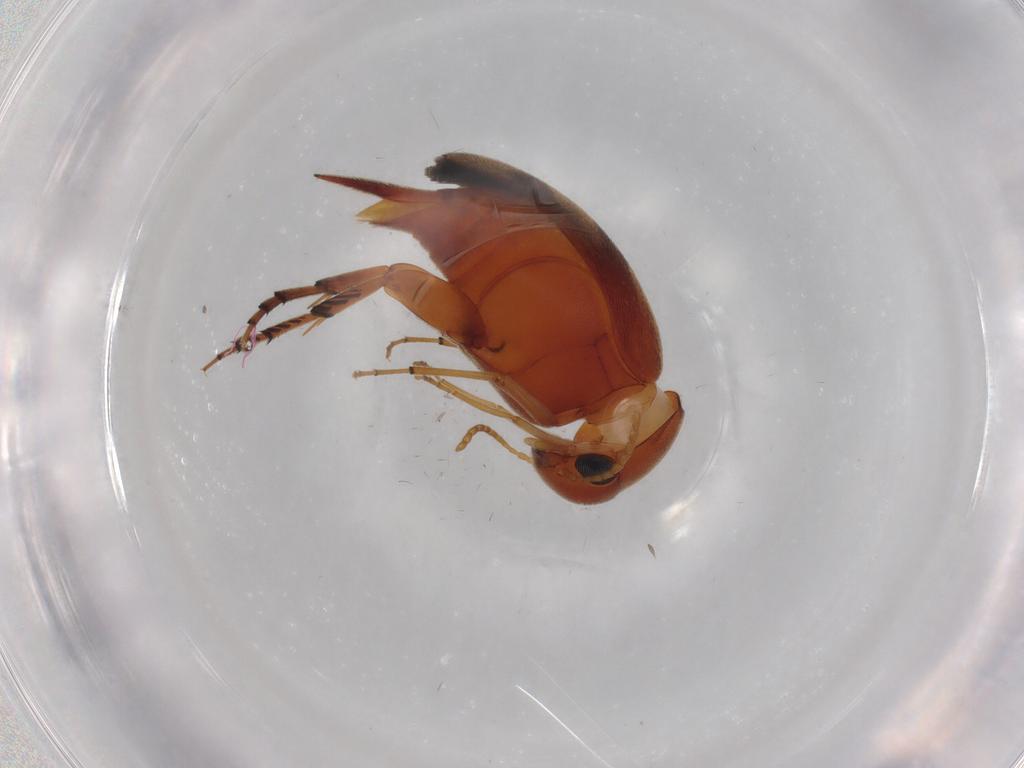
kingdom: Animalia
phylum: Arthropoda
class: Insecta
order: Coleoptera
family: Mordellidae
